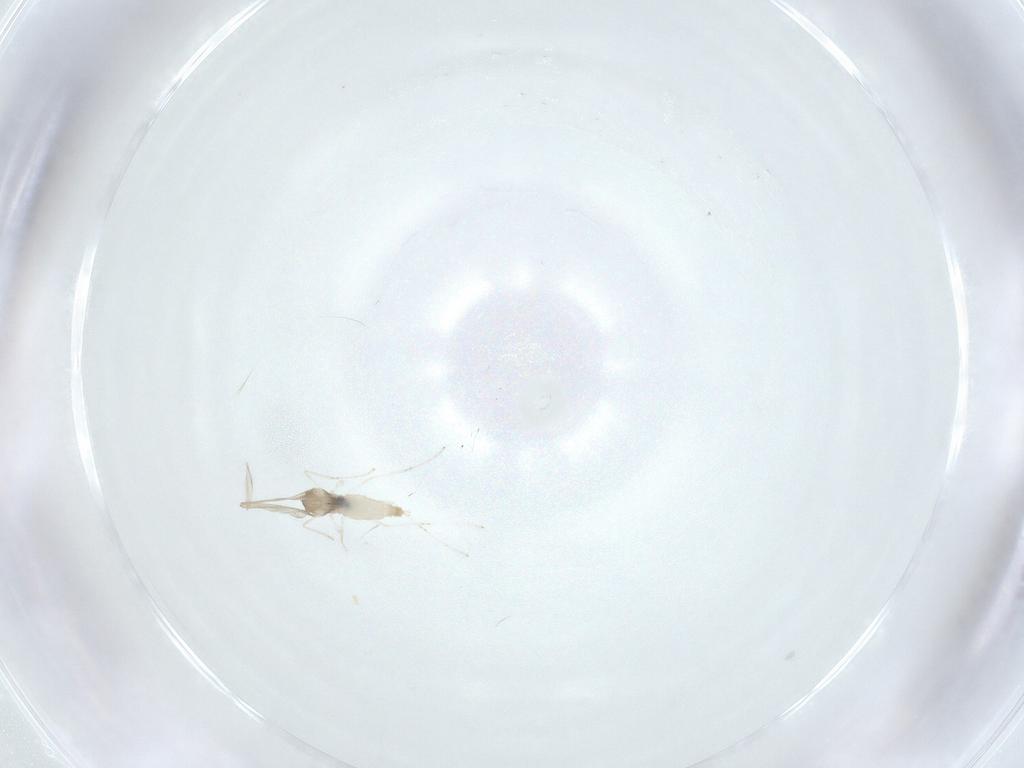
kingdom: Animalia
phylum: Arthropoda
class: Insecta
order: Diptera
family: Cecidomyiidae
